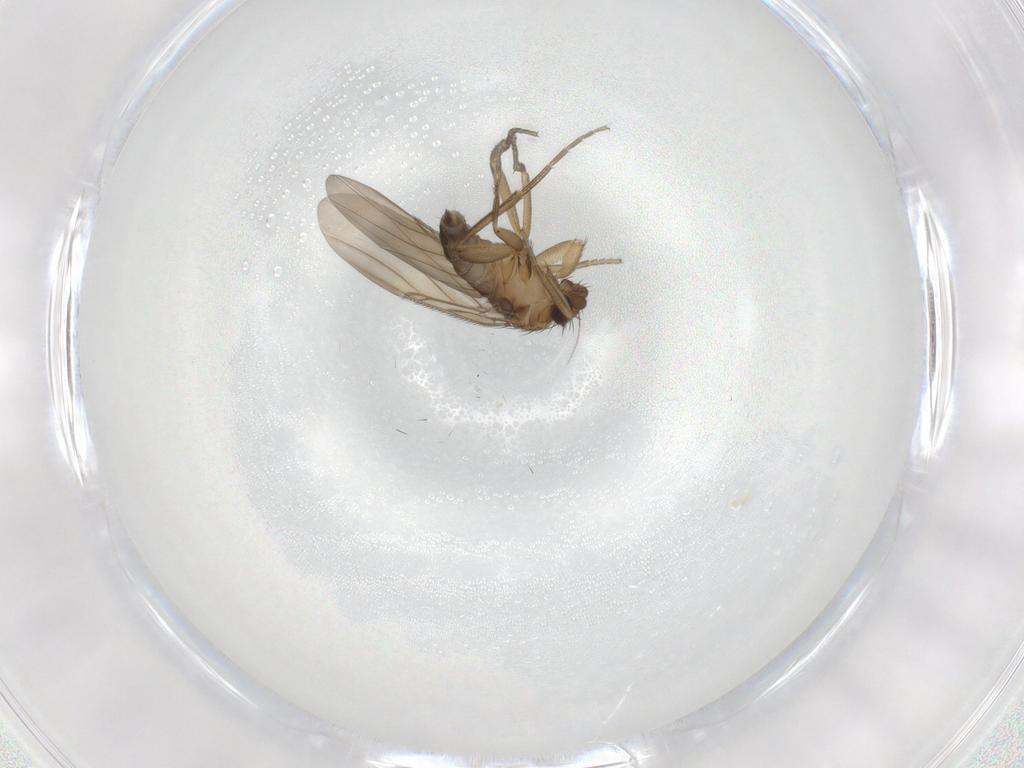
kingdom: Animalia
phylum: Arthropoda
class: Insecta
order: Diptera
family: Phoridae
